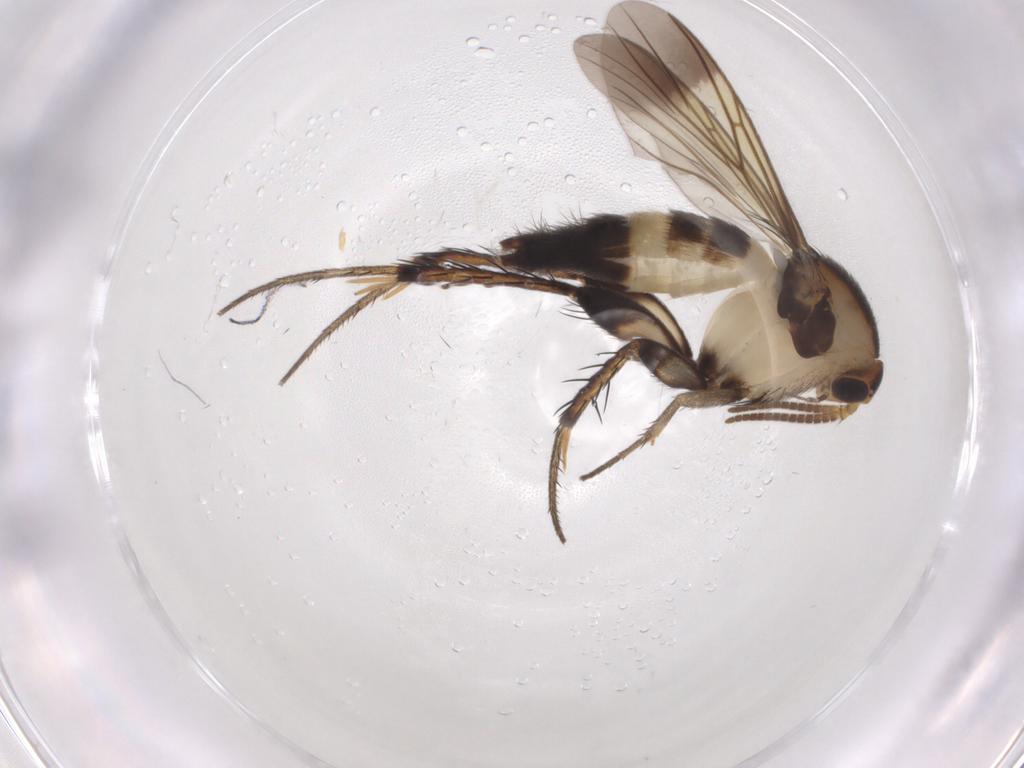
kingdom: Animalia
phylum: Arthropoda
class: Insecta
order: Diptera
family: Mycetophilidae
